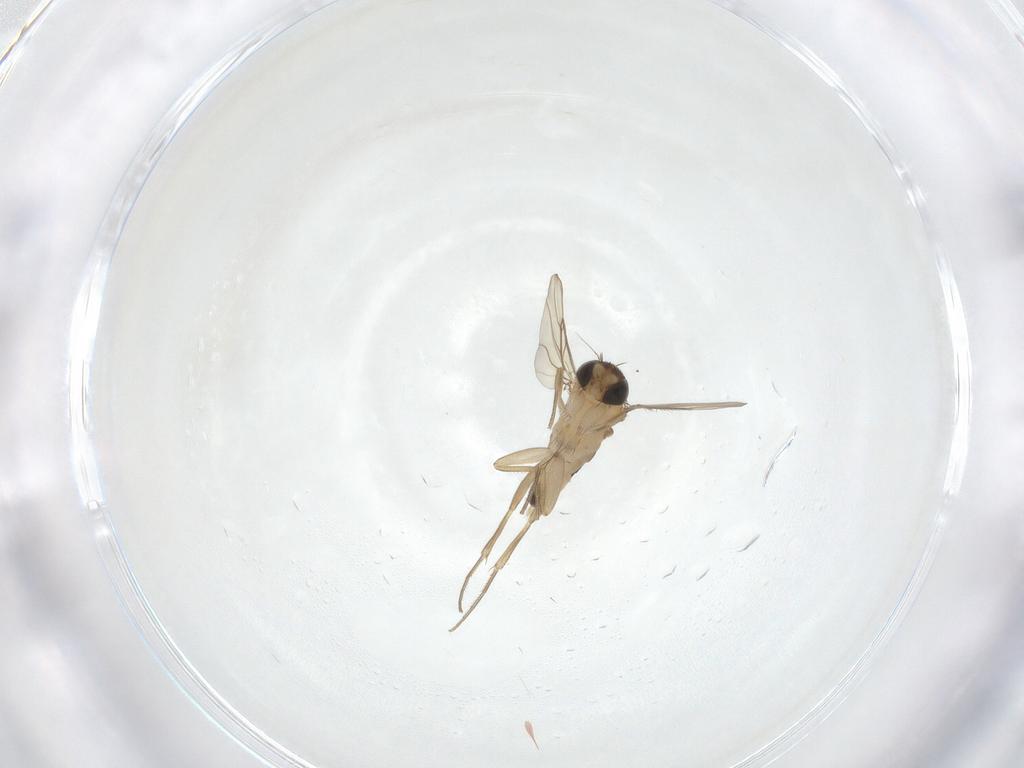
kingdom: Animalia
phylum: Arthropoda
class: Insecta
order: Diptera
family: Phoridae
